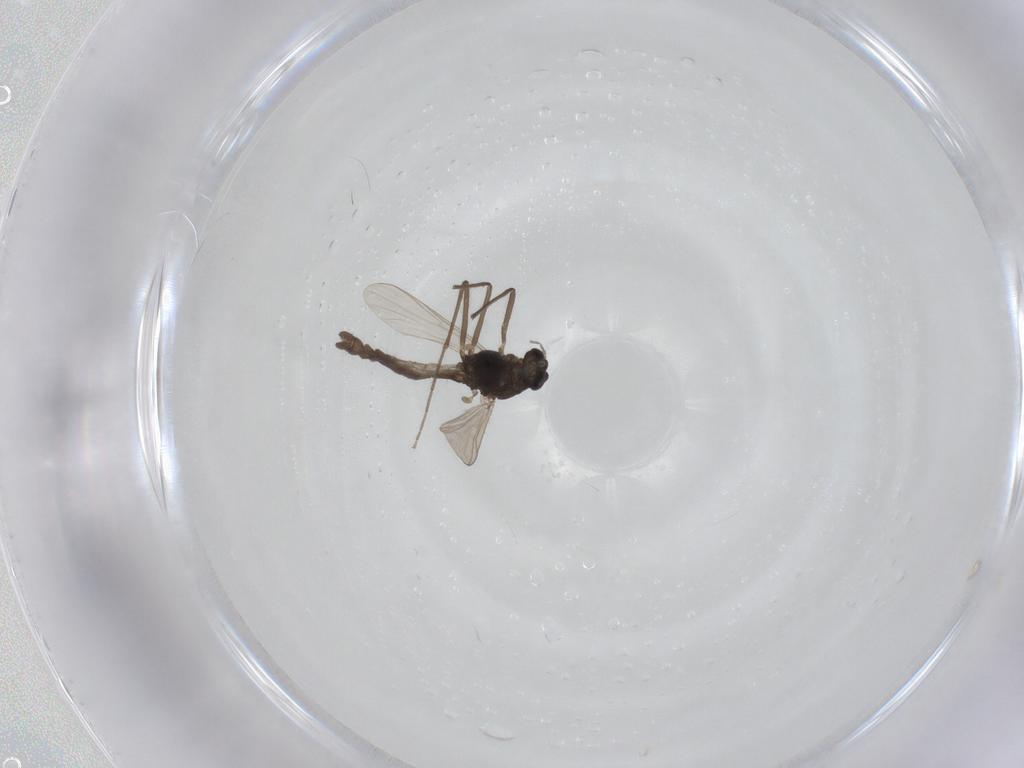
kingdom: Animalia
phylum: Arthropoda
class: Insecta
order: Diptera
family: Chironomidae
